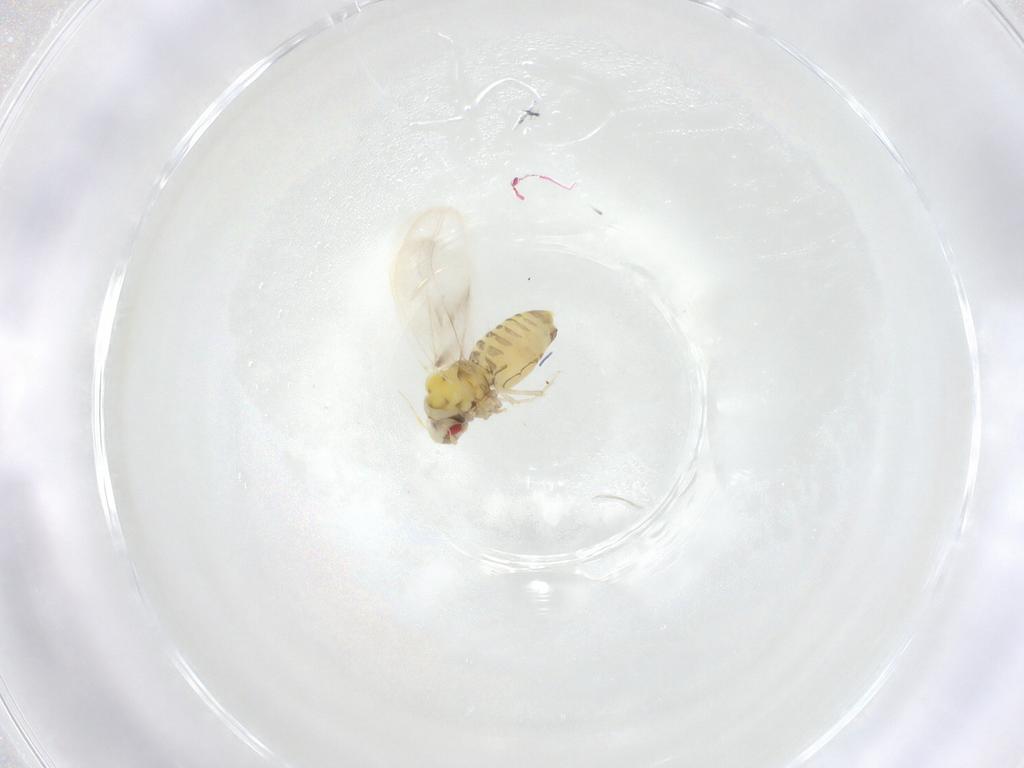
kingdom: Animalia
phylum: Arthropoda
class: Insecta
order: Hemiptera
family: Aleyrodidae
